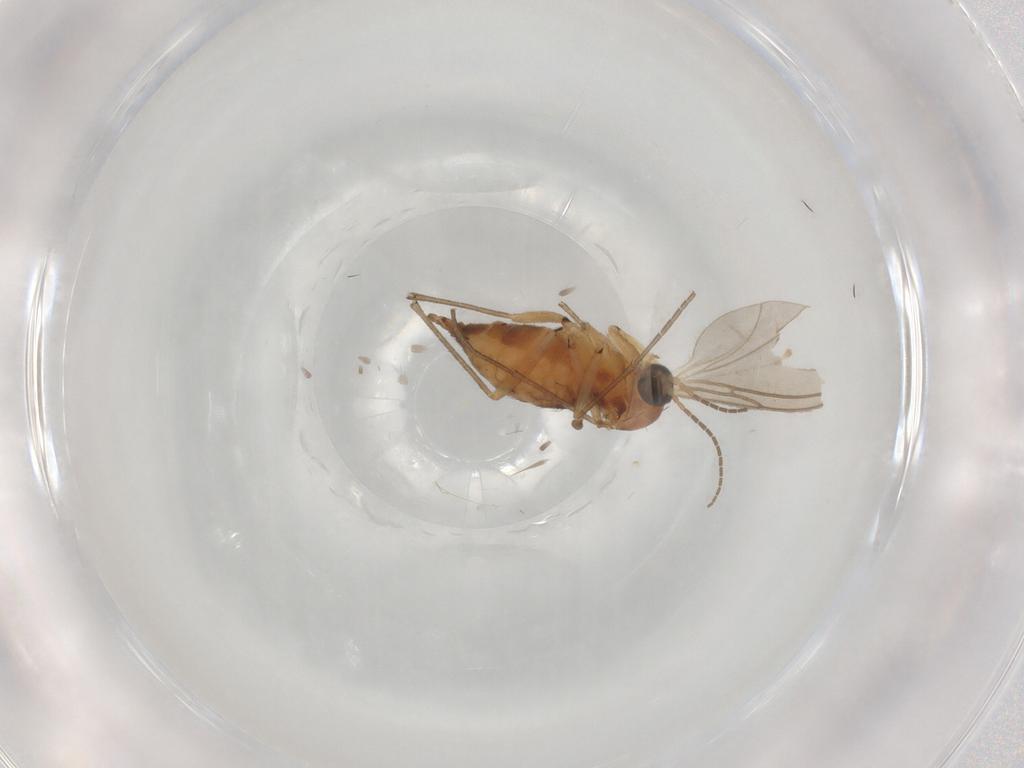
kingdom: Animalia
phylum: Arthropoda
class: Insecta
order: Diptera
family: Sciaridae
